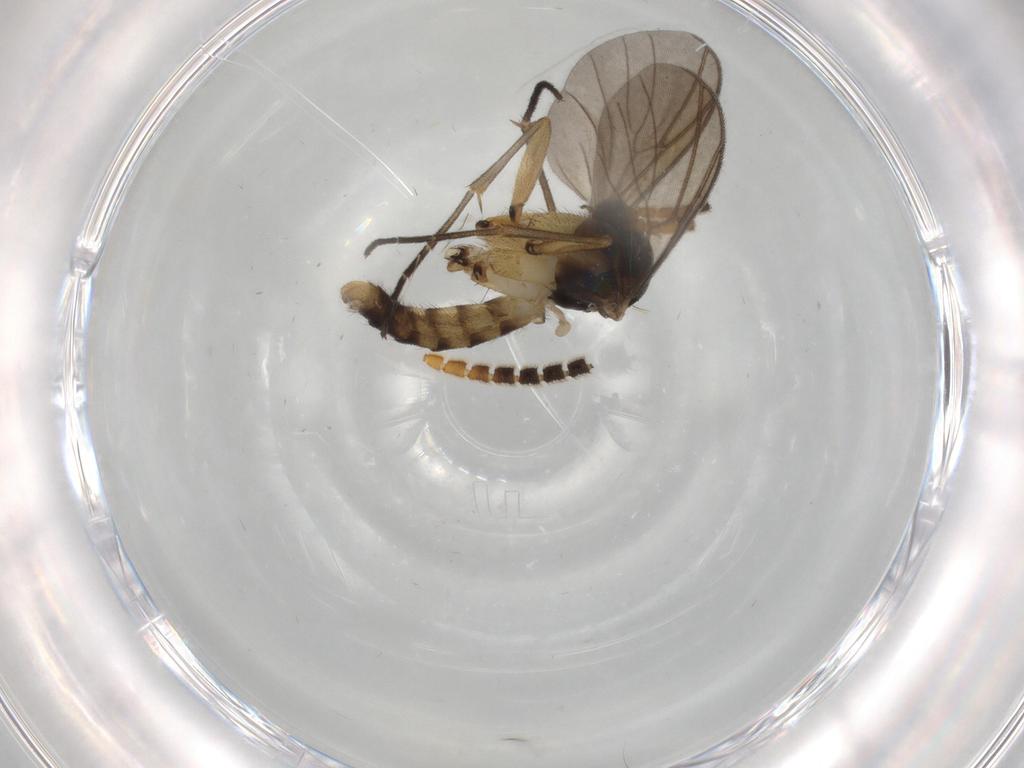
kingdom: Animalia
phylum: Arthropoda
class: Insecta
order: Diptera
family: Mycetophilidae
